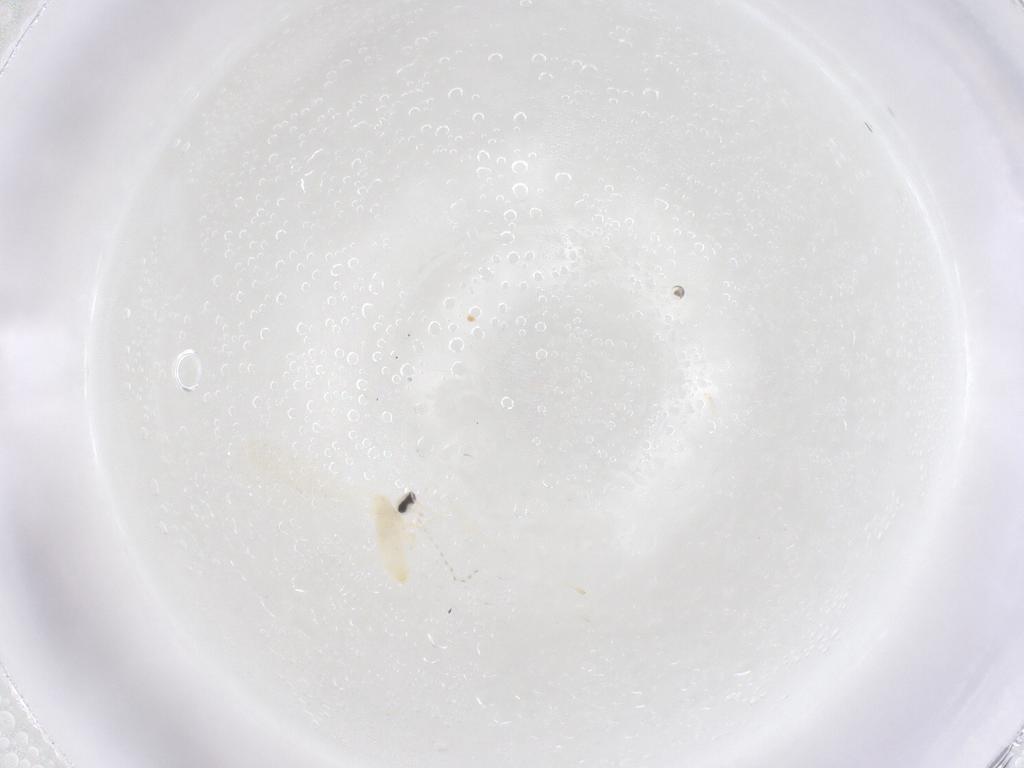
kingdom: Animalia
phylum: Arthropoda
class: Insecta
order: Diptera
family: Cecidomyiidae
